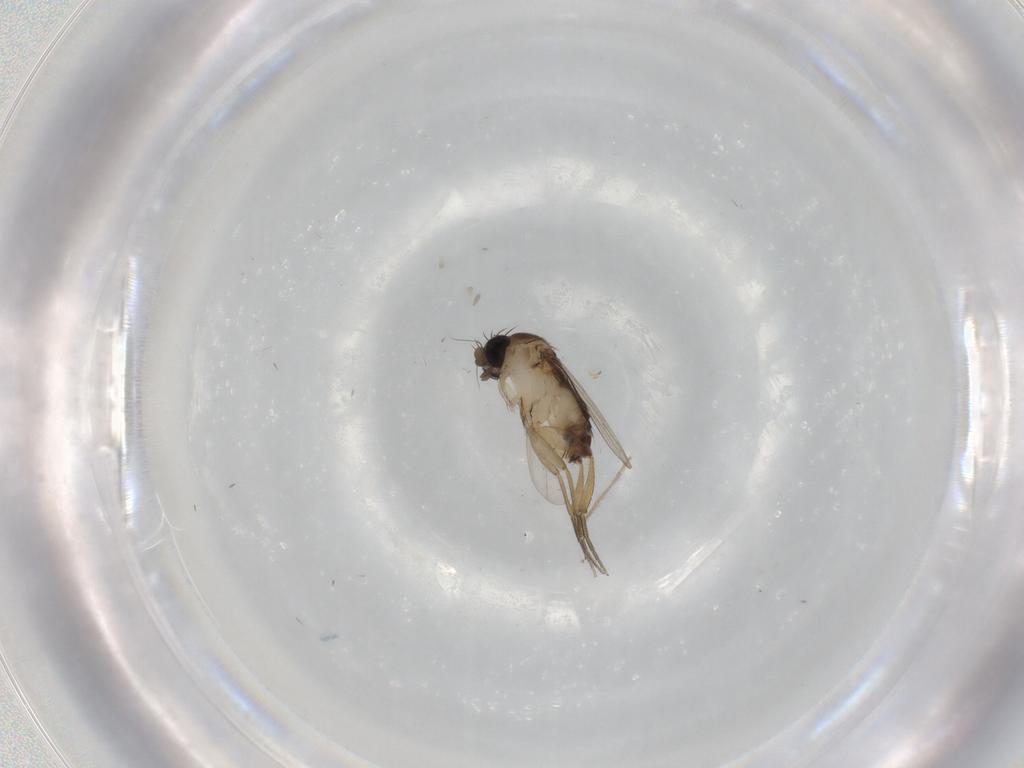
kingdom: Animalia
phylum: Arthropoda
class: Insecta
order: Diptera
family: Phoridae
